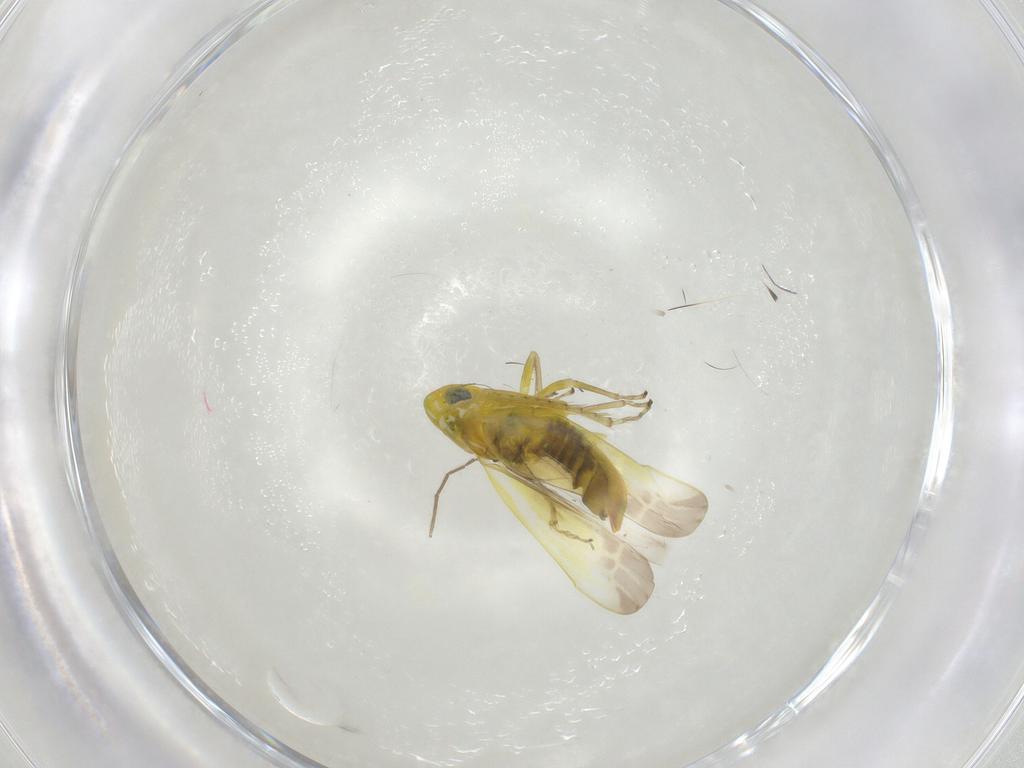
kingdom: Animalia
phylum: Arthropoda
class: Insecta
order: Hemiptera
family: Cicadellidae
